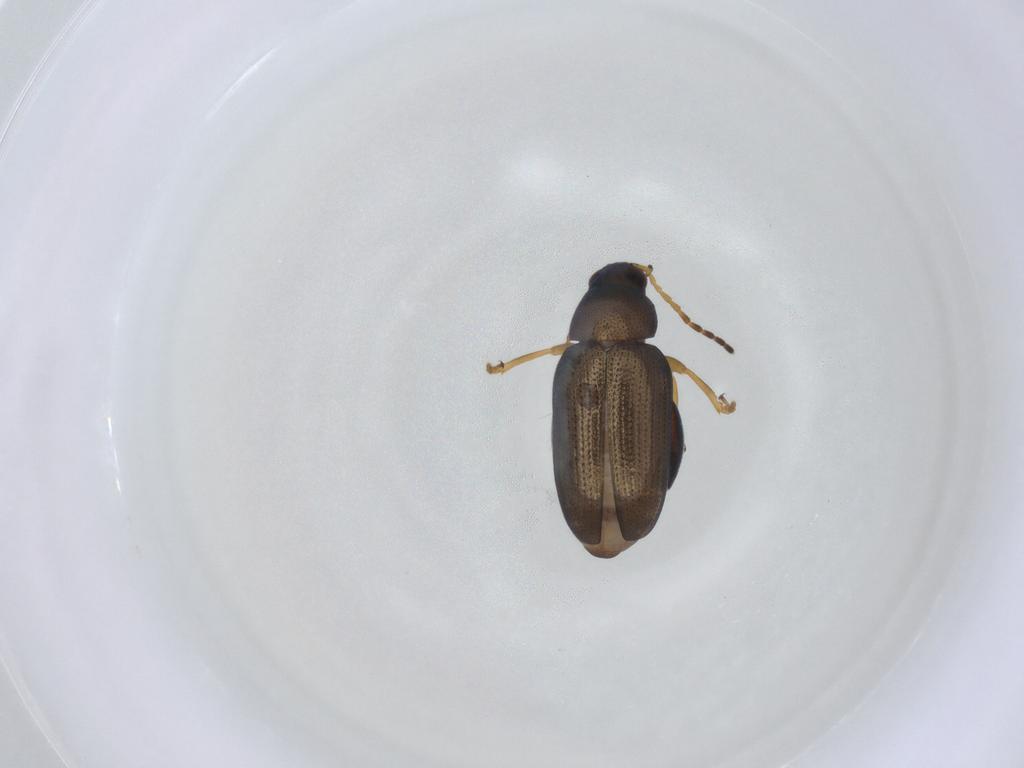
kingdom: Animalia
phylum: Arthropoda
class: Insecta
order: Coleoptera
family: Chrysomelidae
